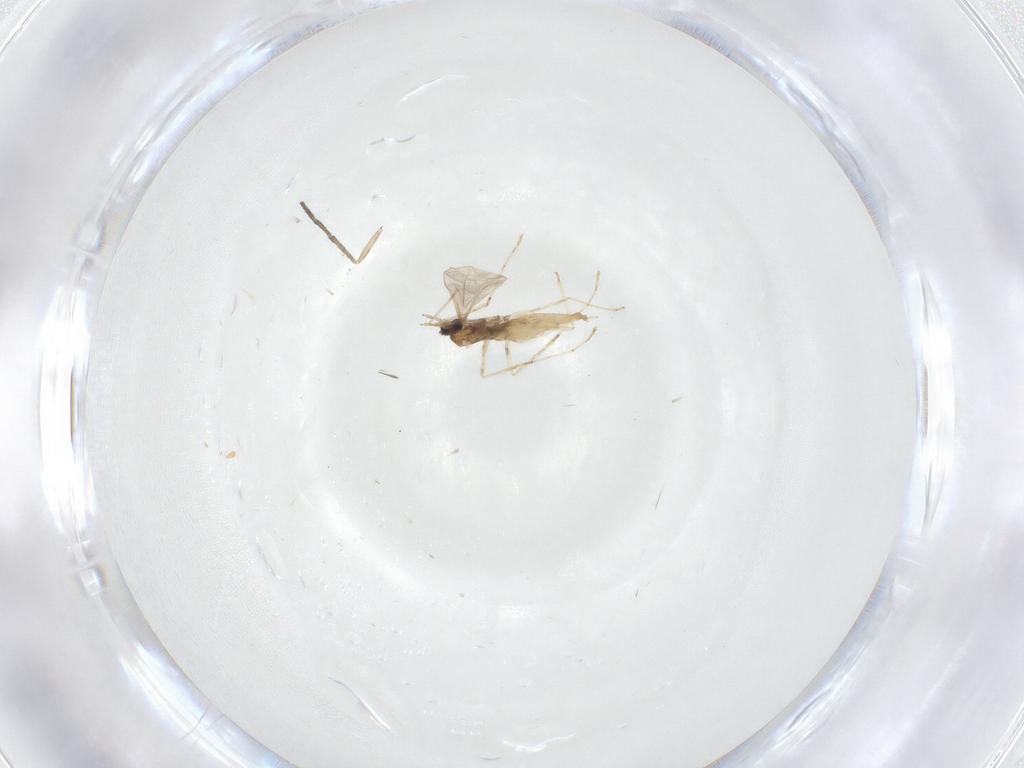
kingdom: Animalia
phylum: Arthropoda
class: Insecta
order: Diptera
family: Cecidomyiidae
